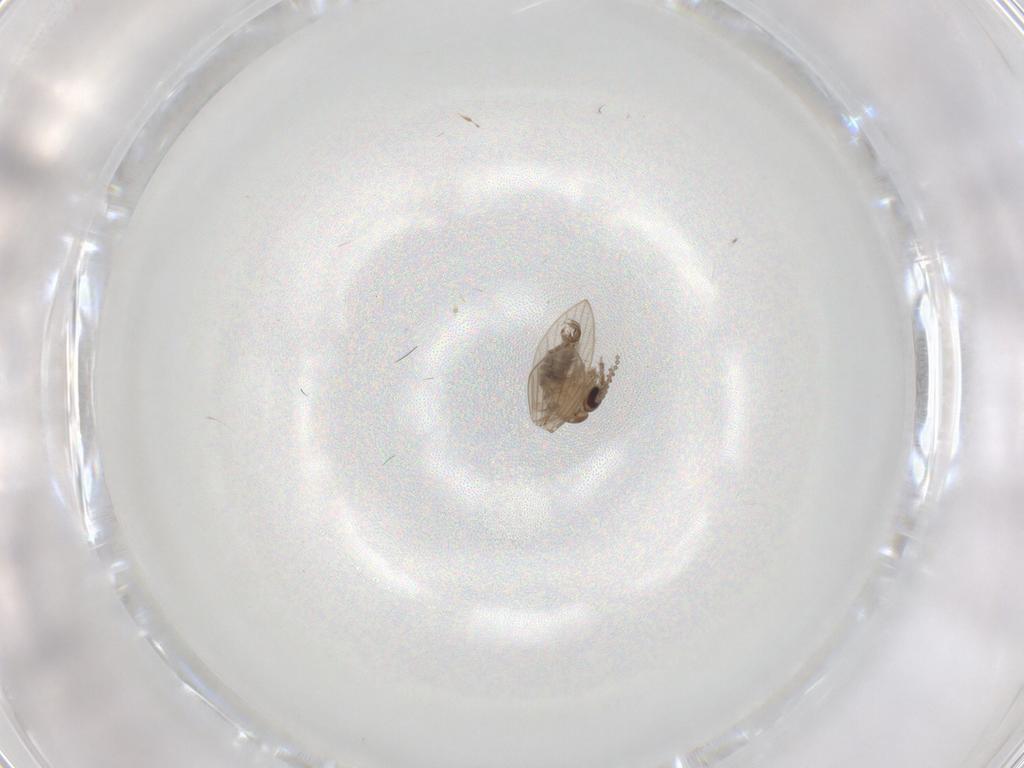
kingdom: Animalia
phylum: Arthropoda
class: Insecta
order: Diptera
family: Psychodidae
